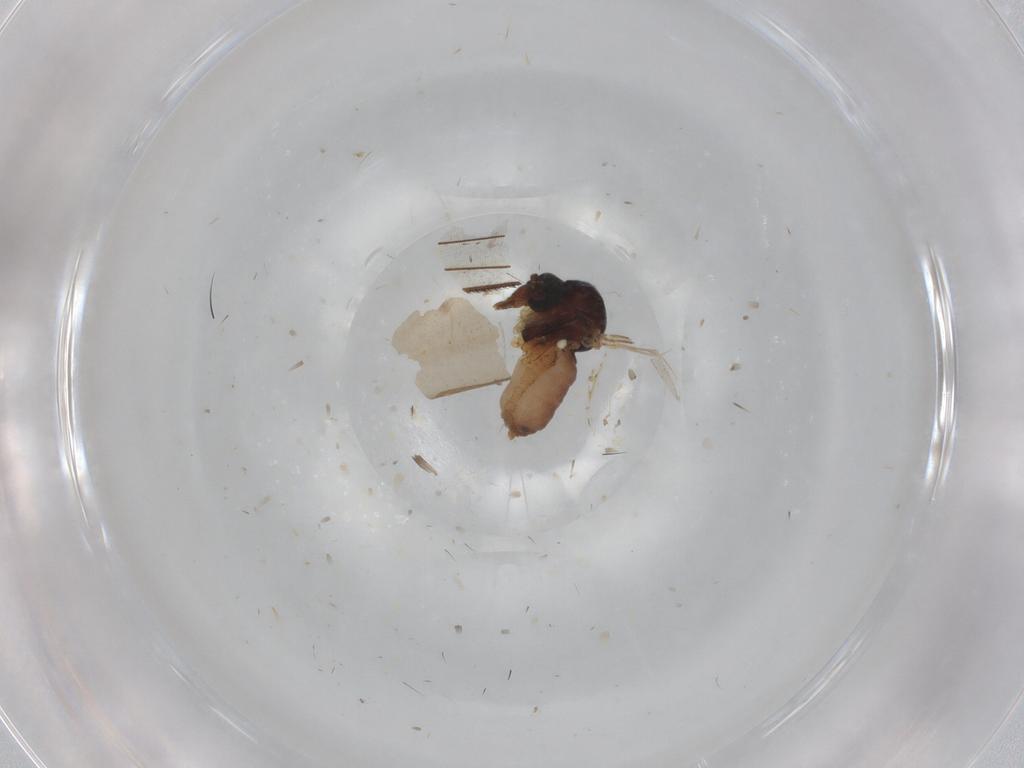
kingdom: Animalia
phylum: Arthropoda
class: Insecta
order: Diptera
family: Ceratopogonidae
